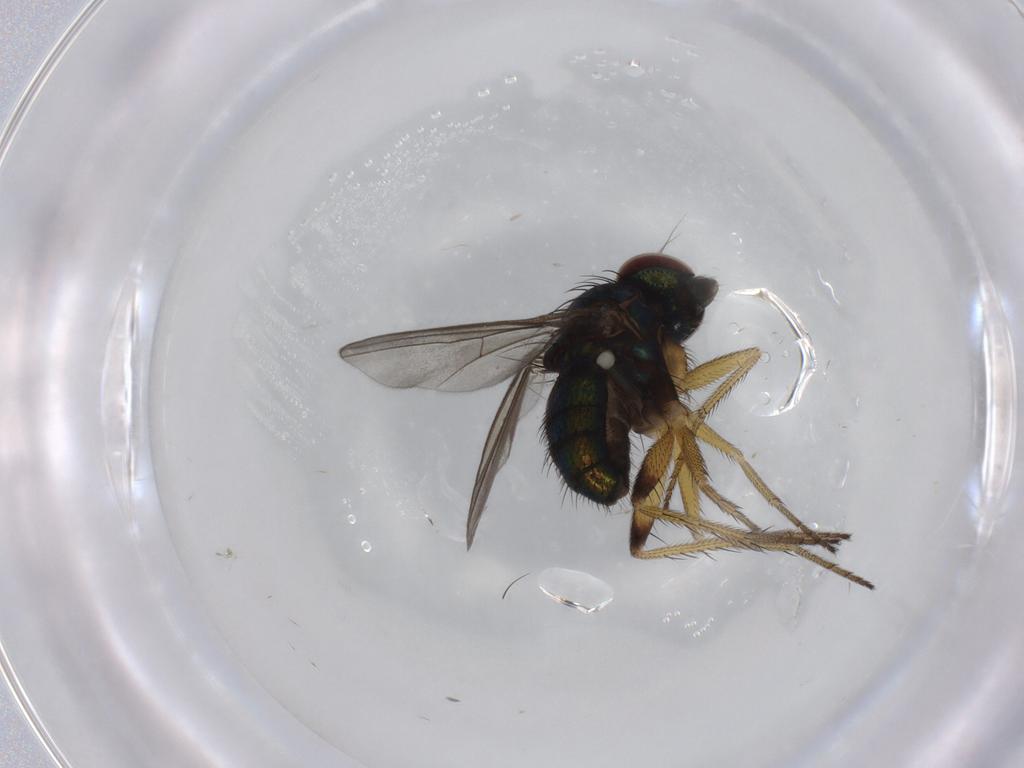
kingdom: Animalia
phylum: Arthropoda
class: Insecta
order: Diptera
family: Dolichopodidae
